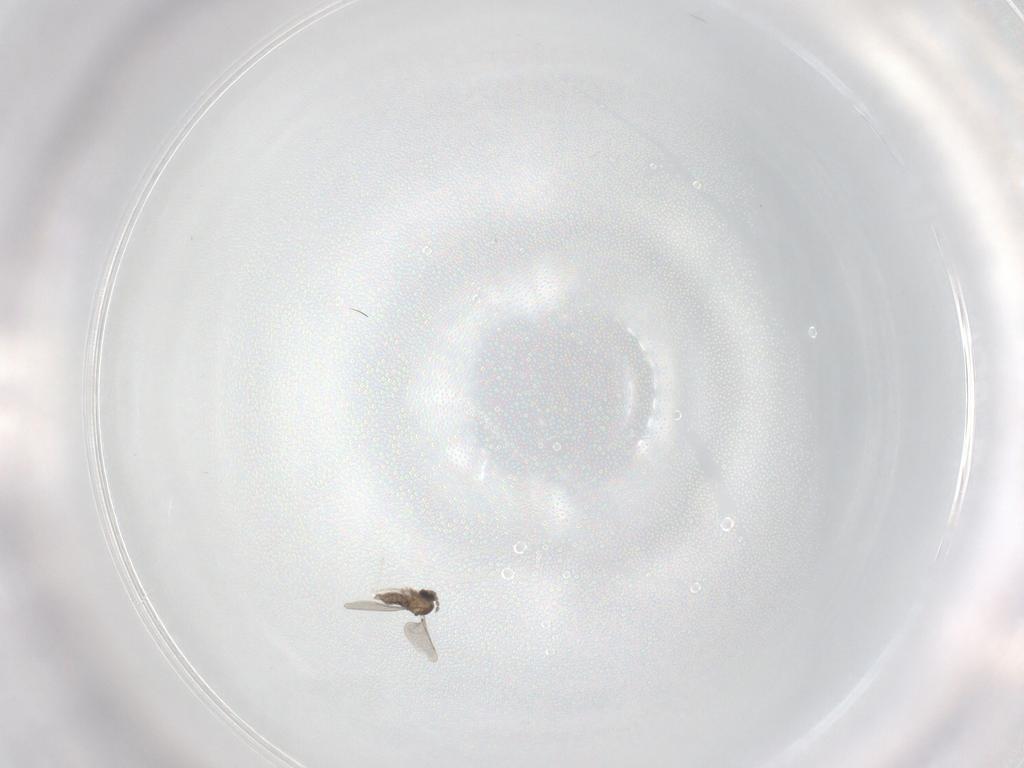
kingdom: Animalia
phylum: Arthropoda
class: Insecta
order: Diptera
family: Cecidomyiidae
